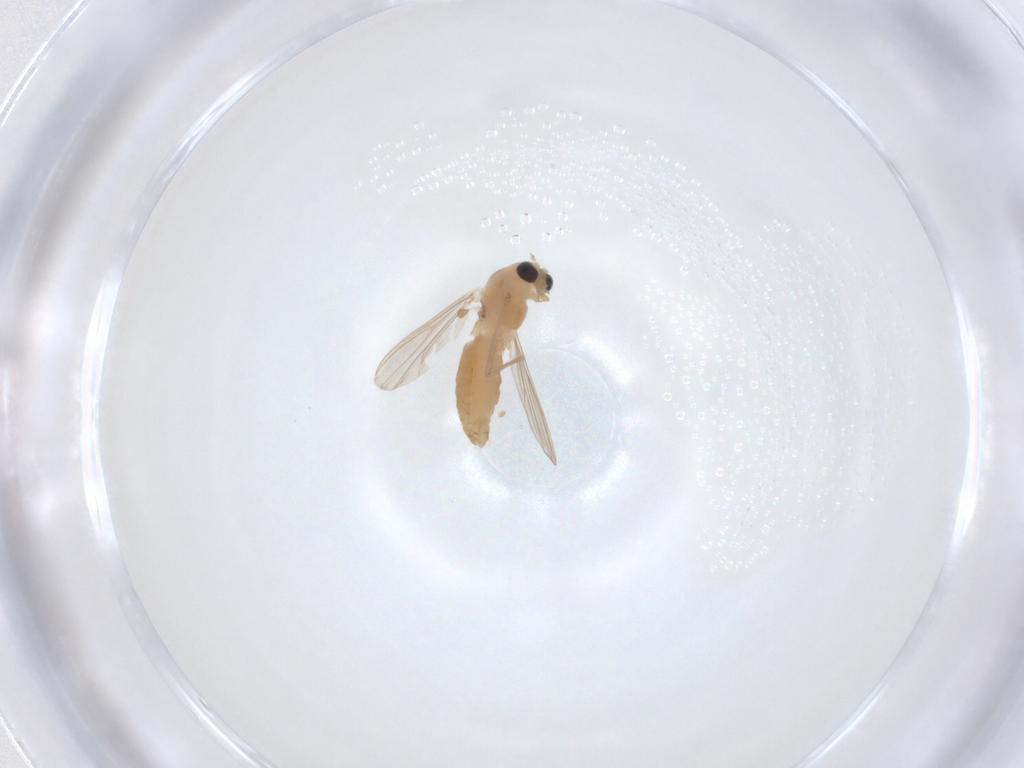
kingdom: Animalia
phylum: Arthropoda
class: Insecta
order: Diptera
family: Chironomidae
